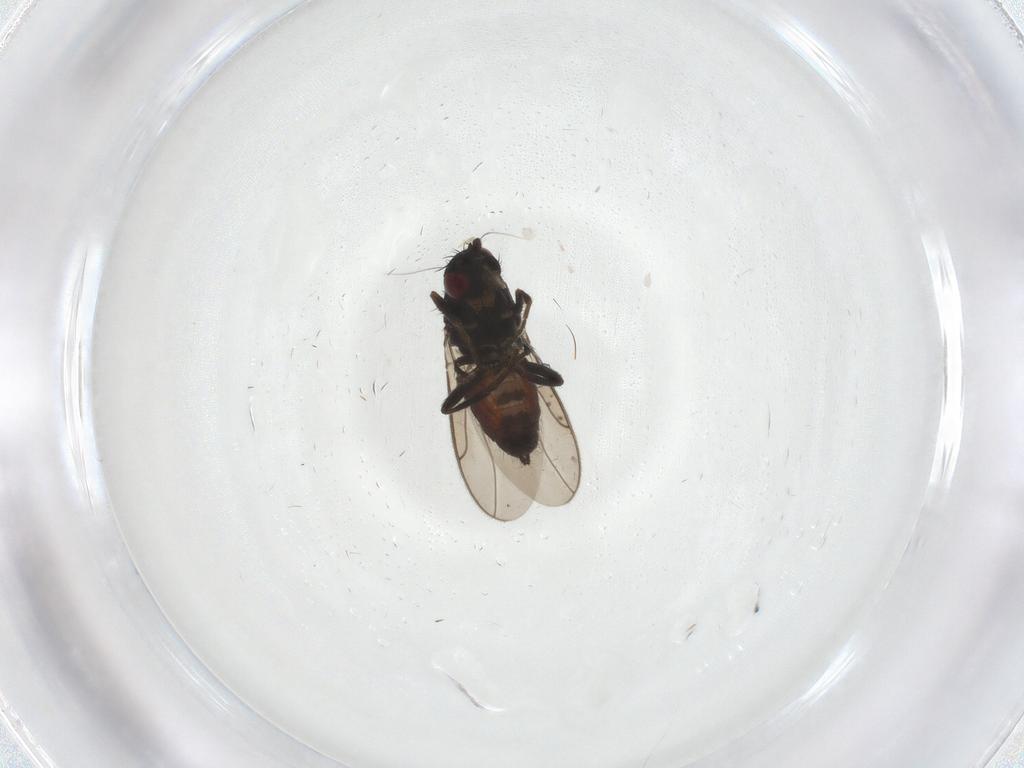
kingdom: Animalia
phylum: Arthropoda
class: Insecta
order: Diptera
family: Sphaeroceridae
